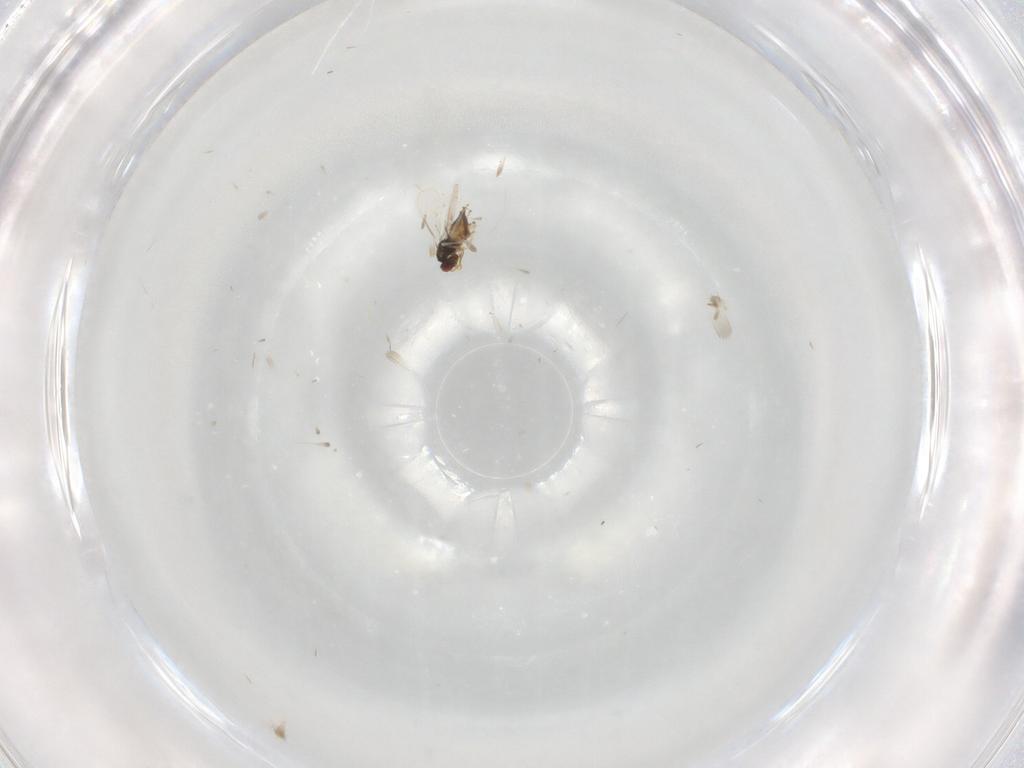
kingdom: Animalia
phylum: Arthropoda
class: Insecta
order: Hymenoptera
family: Eulophidae
